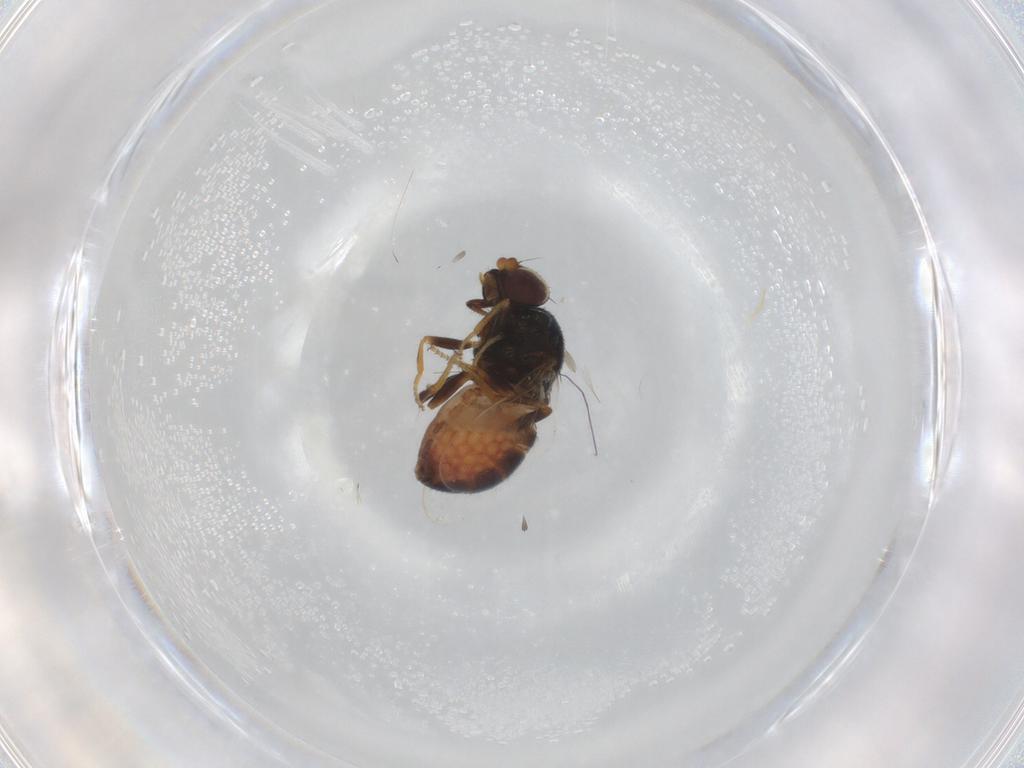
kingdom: Animalia
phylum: Arthropoda
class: Insecta
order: Diptera
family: Chloropidae
